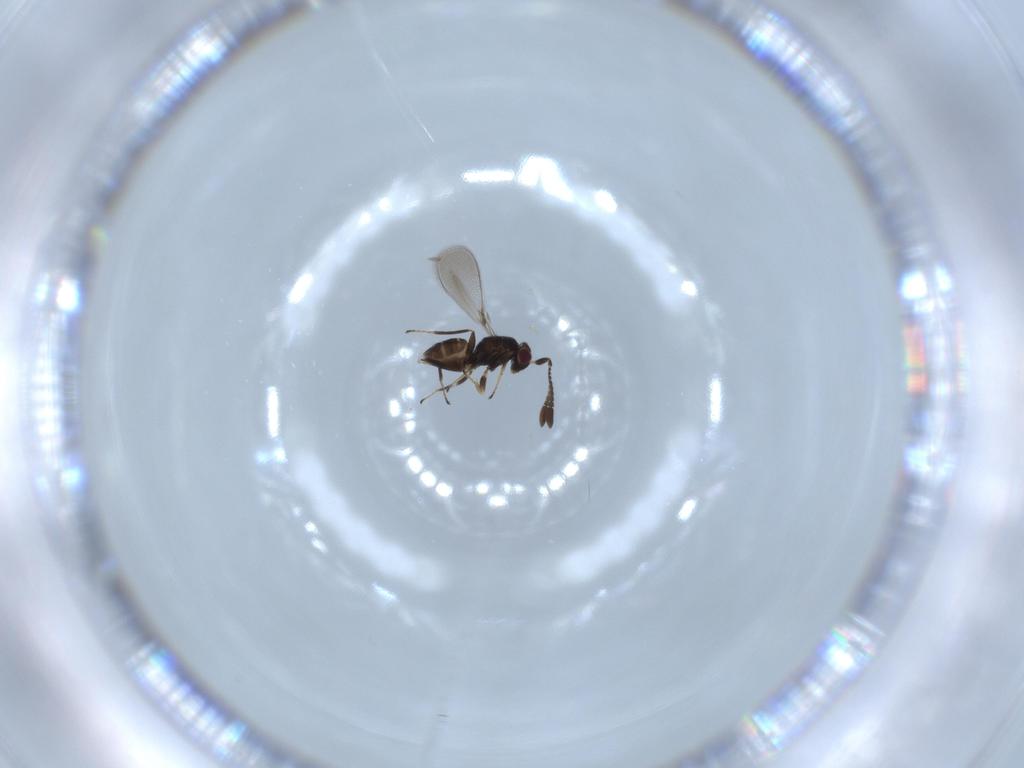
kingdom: Animalia
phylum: Arthropoda
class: Insecta
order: Hymenoptera
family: Mymaridae
